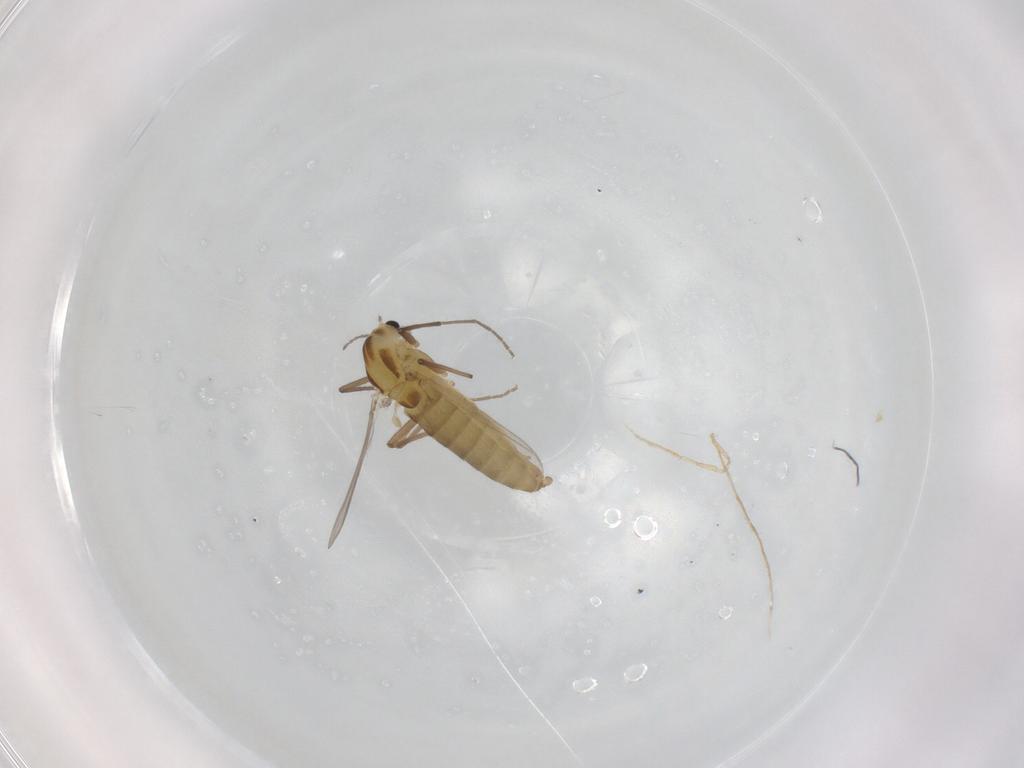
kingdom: Animalia
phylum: Arthropoda
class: Insecta
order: Diptera
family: Chironomidae
